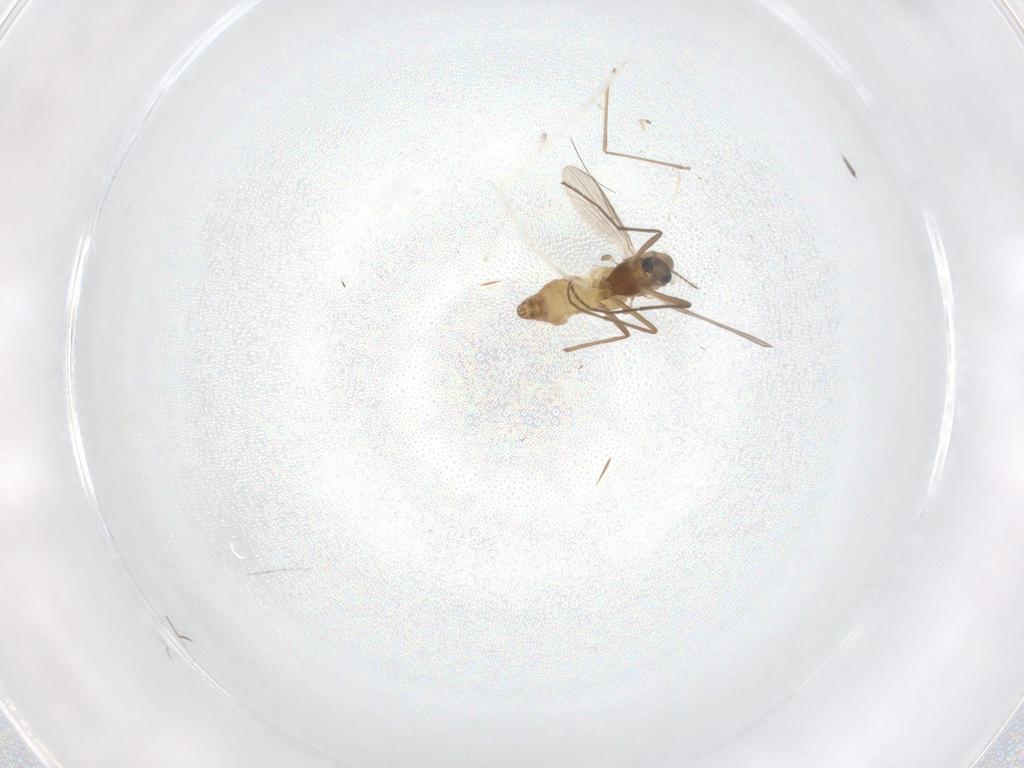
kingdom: Animalia
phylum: Arthropoda
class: Insecta
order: Diptera
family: Chironomidae
